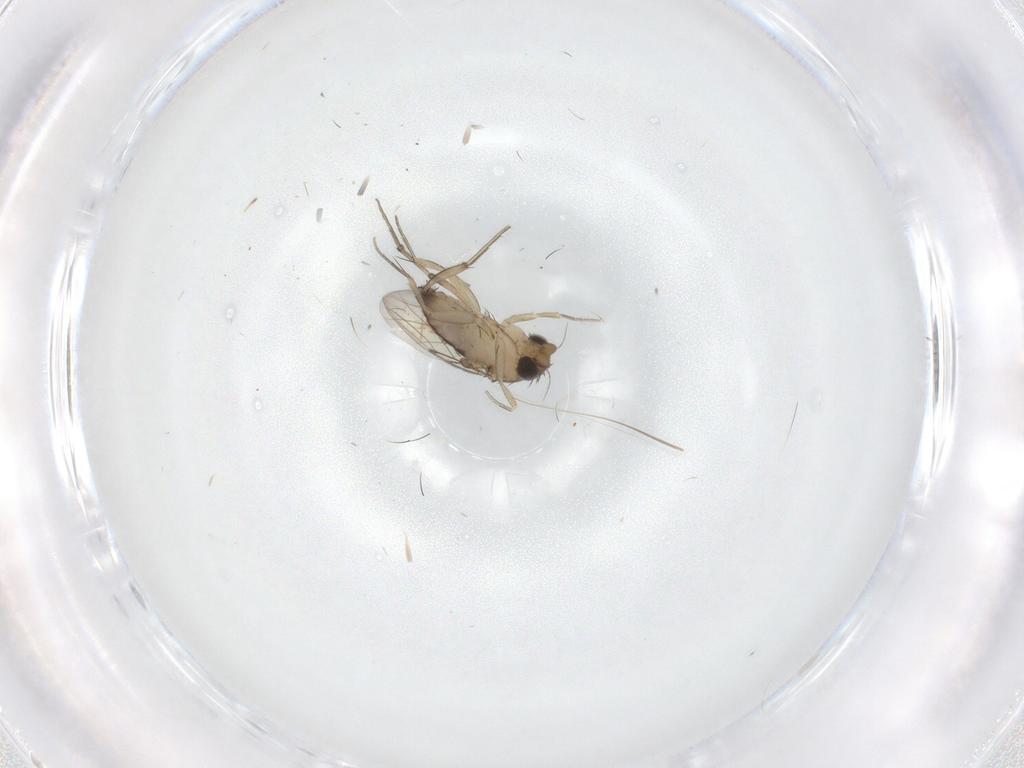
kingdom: Animalia
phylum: Arthropoda
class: Insecta
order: Diptera
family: Phoridae
